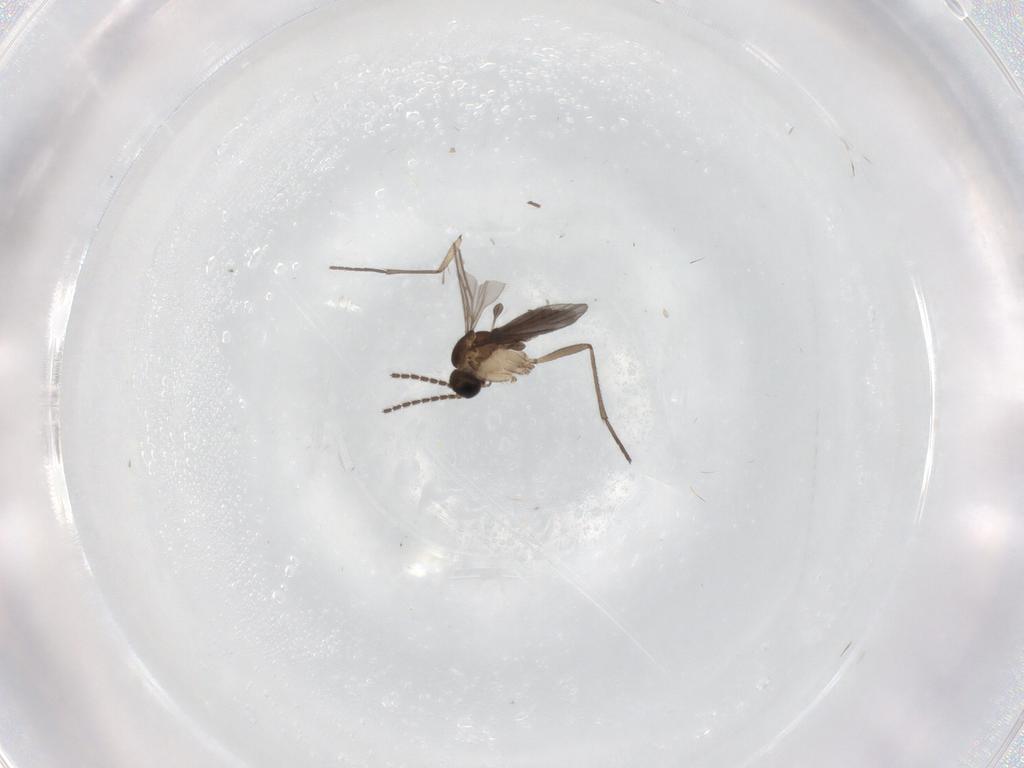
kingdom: Animalia
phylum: Arthropoda
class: Insecta
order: Diptera
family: Sciaridae
